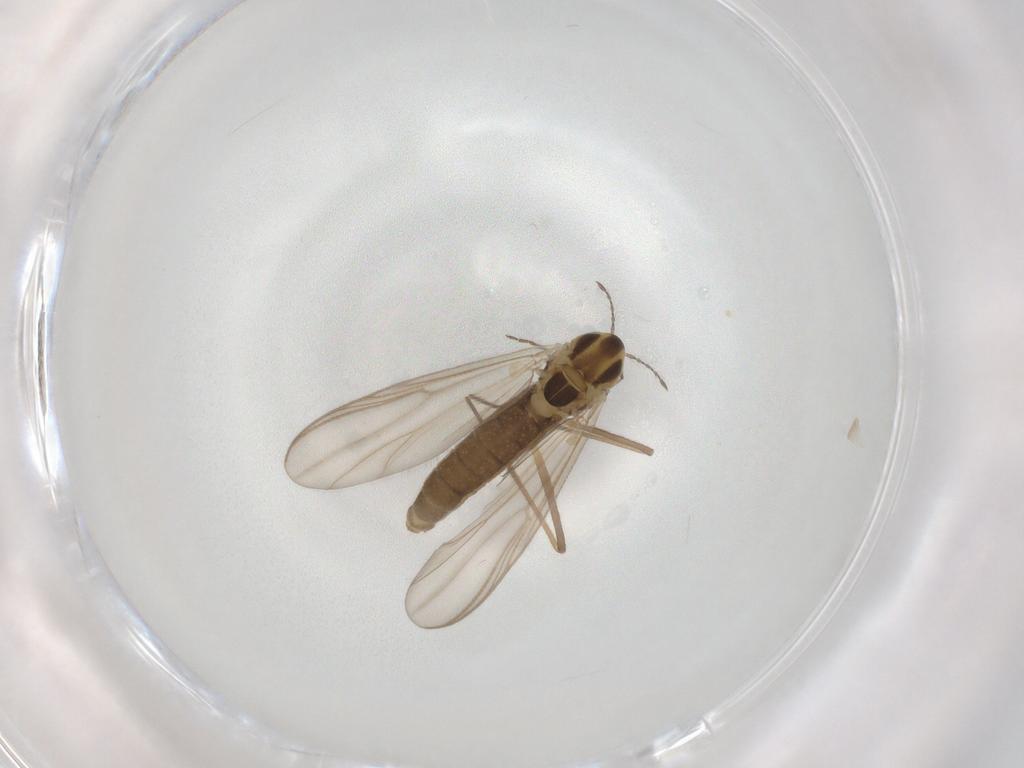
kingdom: Animalia
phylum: Arthropoda
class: Insecta
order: Diptera
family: Chironomidae
